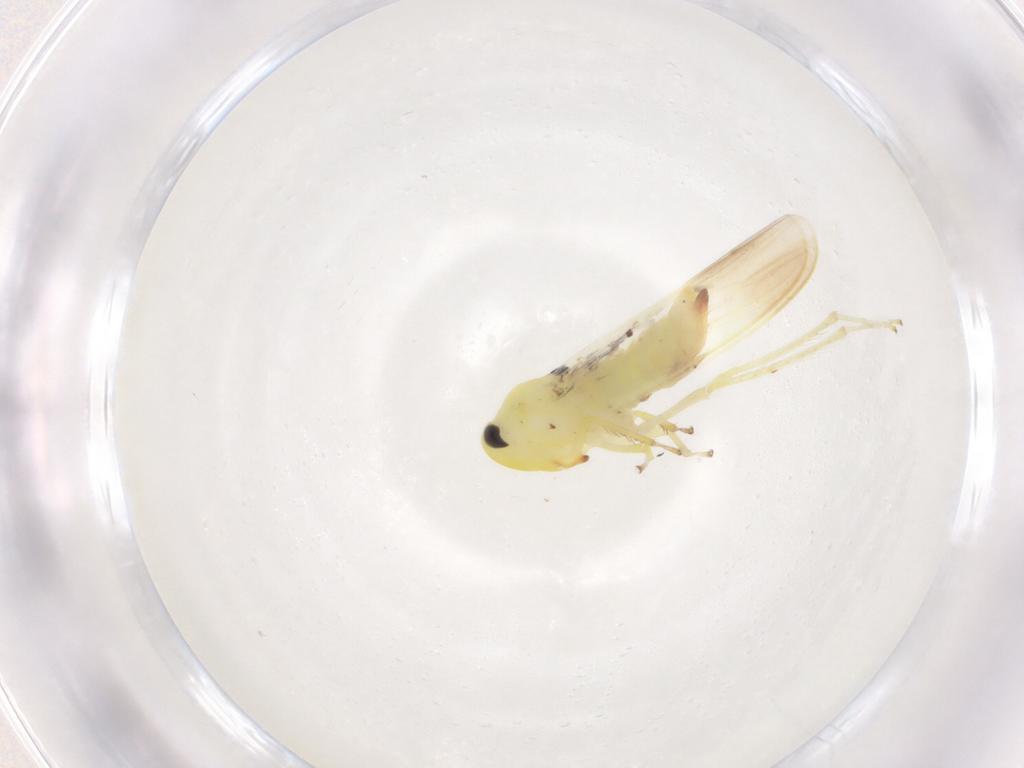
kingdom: Animalia
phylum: Arthropoda
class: Insecta
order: Hemiptera
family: Cicadellidae
